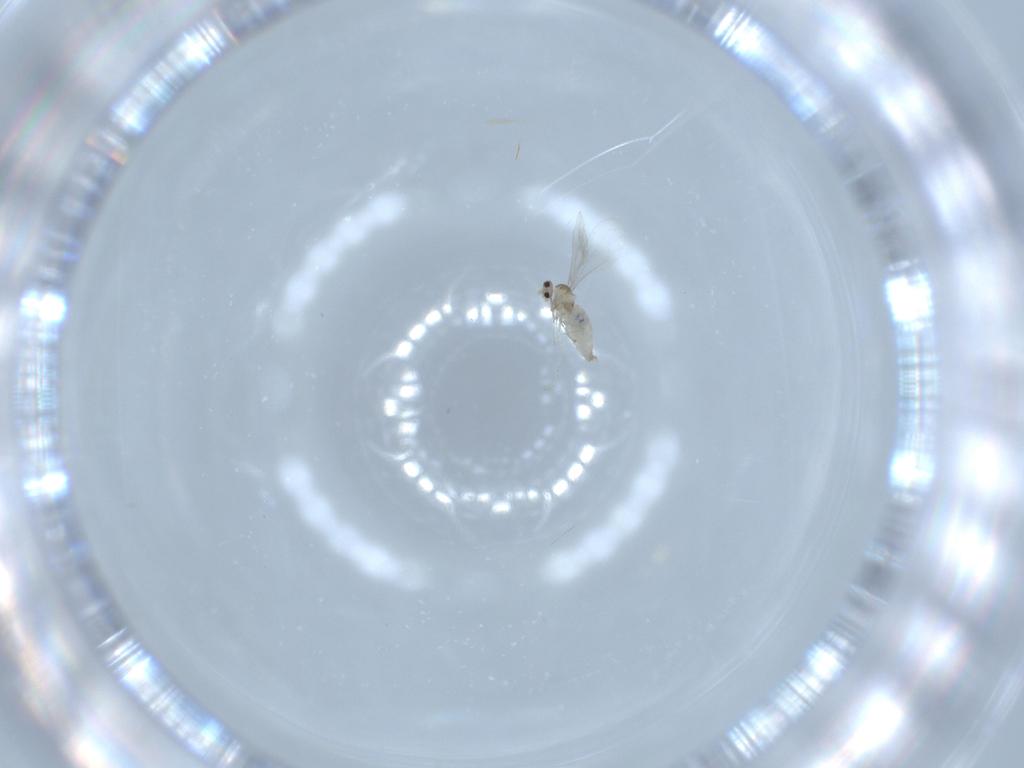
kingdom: Animalia
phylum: Arthropoda
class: Insecta
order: Diptera
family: Cecidomyiidae
